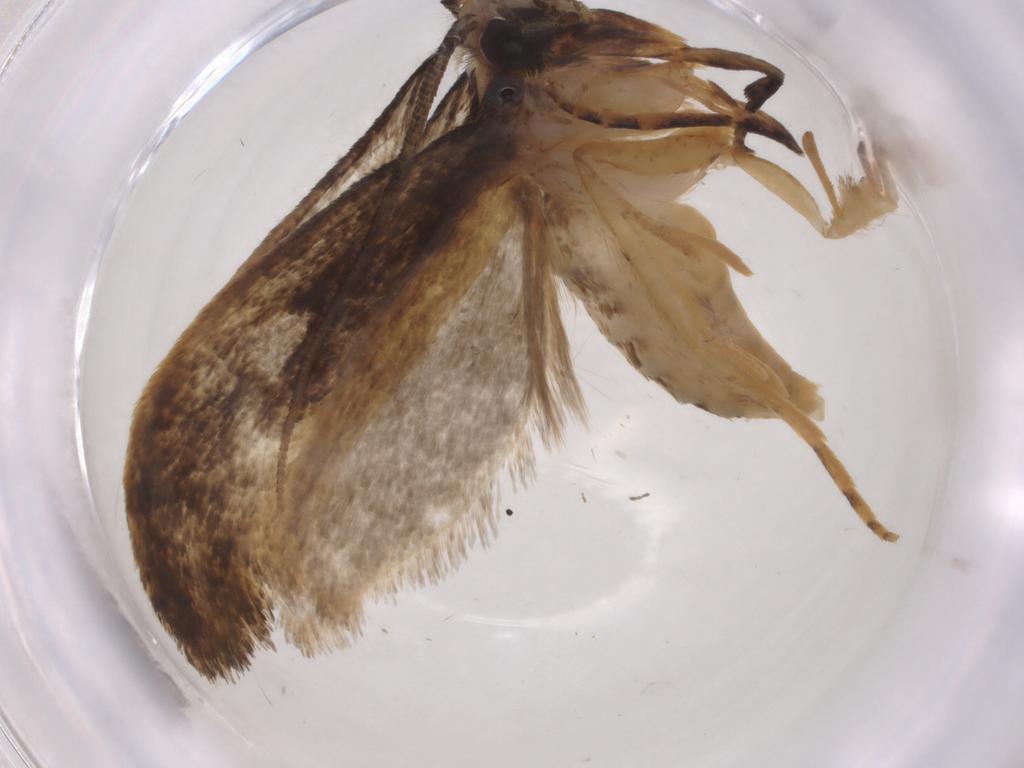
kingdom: Animalia
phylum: Arthropoda
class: Insecta
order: Lepidoptera
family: Tineidae
